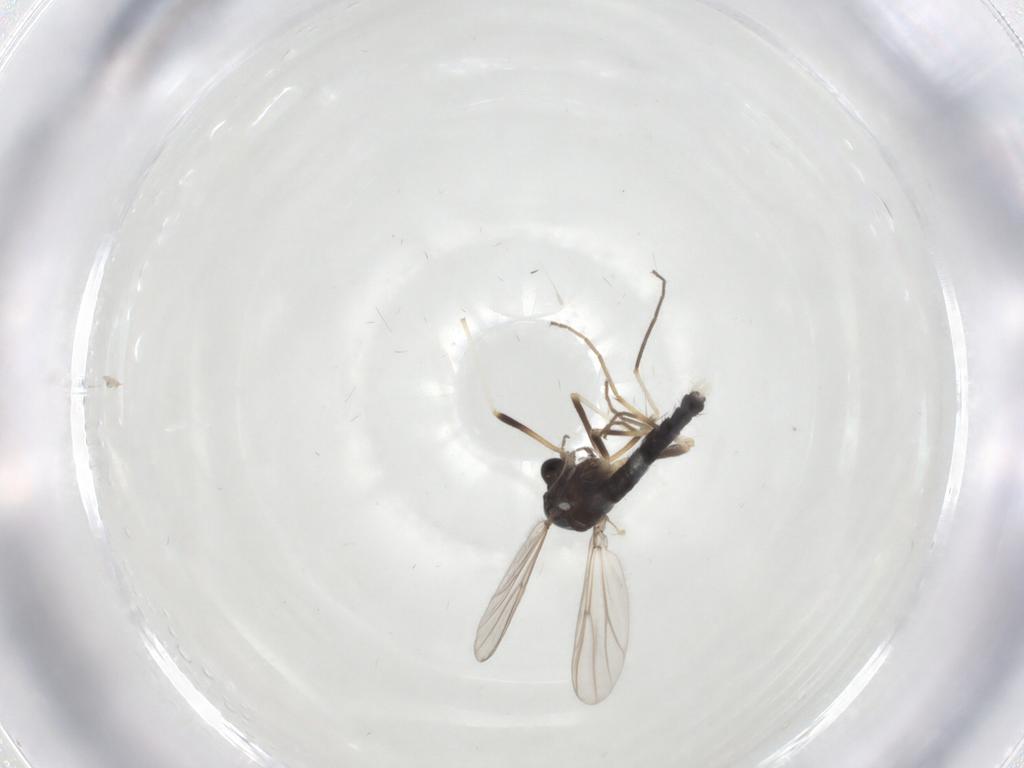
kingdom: Animalia
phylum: Arthropoda
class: Insecta
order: Diptera
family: Chironomidae
